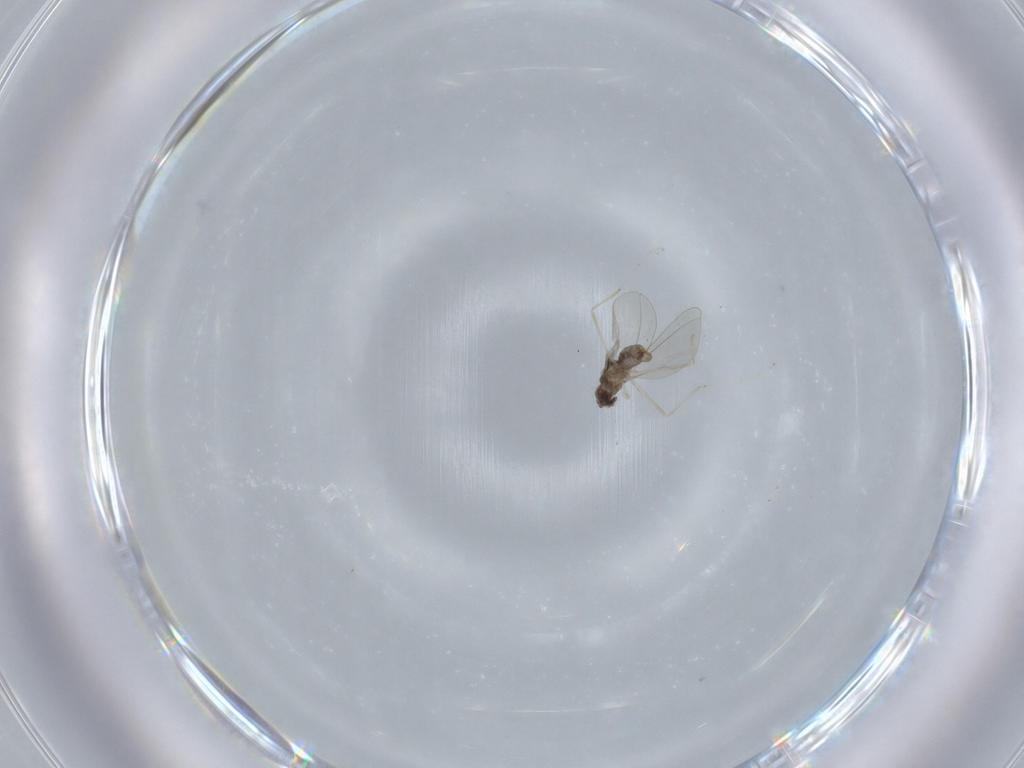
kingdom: Animalia
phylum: Arthropoda
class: Insecta
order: Diptera
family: Cecidomyiidae
